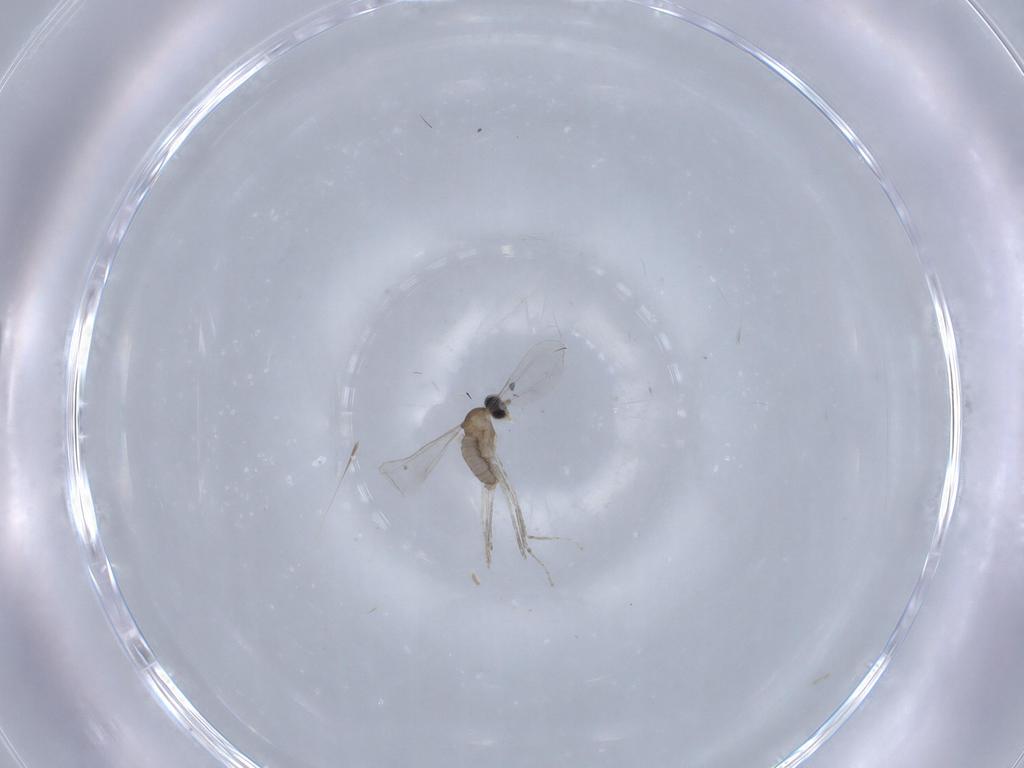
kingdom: Animalia
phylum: Arthropoda
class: Insecta
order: Diptera
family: Cecidomyiidae
